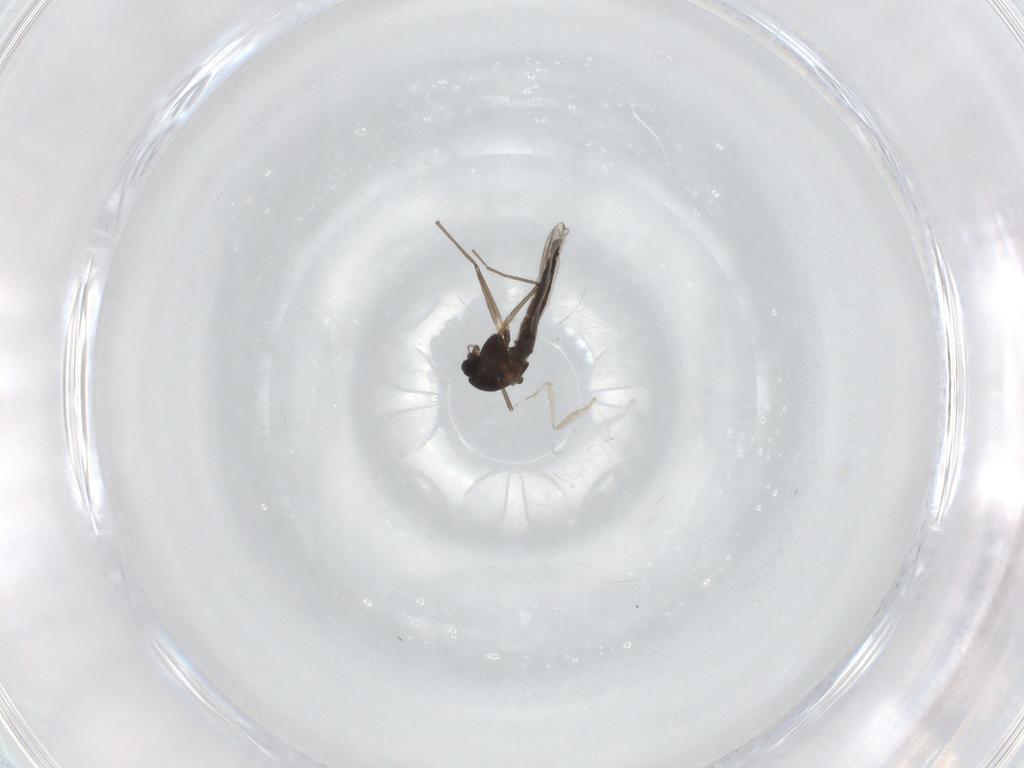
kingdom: Animalia
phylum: Arthropoda
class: Insecta
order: Diptera
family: Chironomidae
